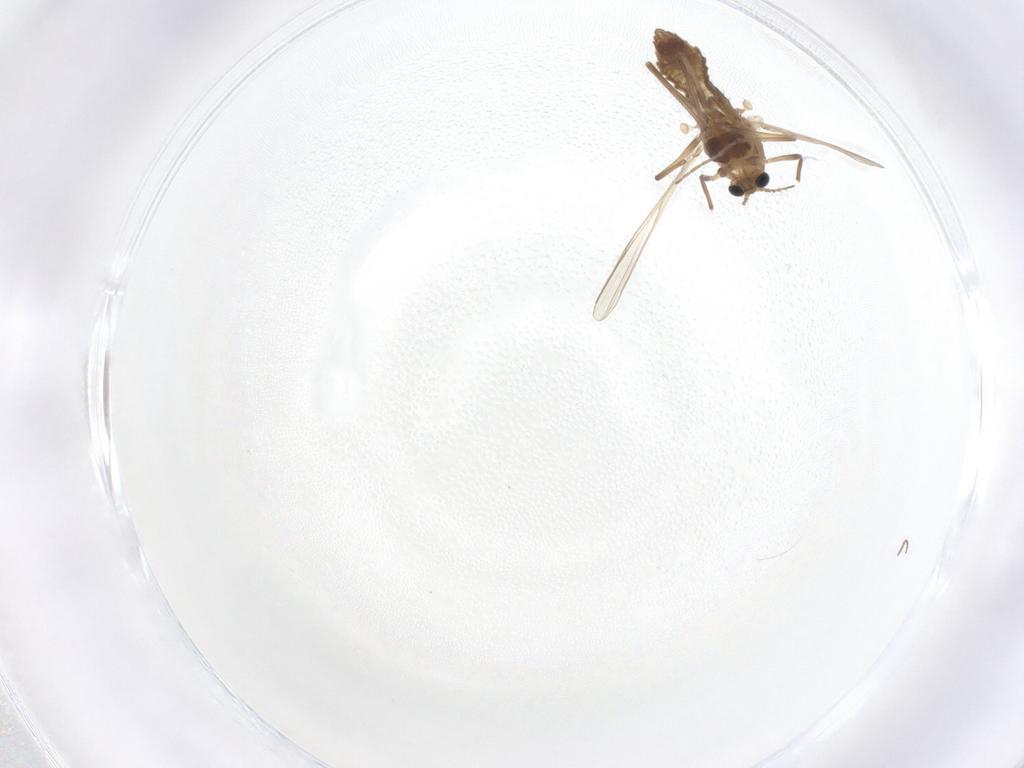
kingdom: Animalia
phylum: Arthropoda
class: Insecta
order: Diptera
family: Chironomidae
